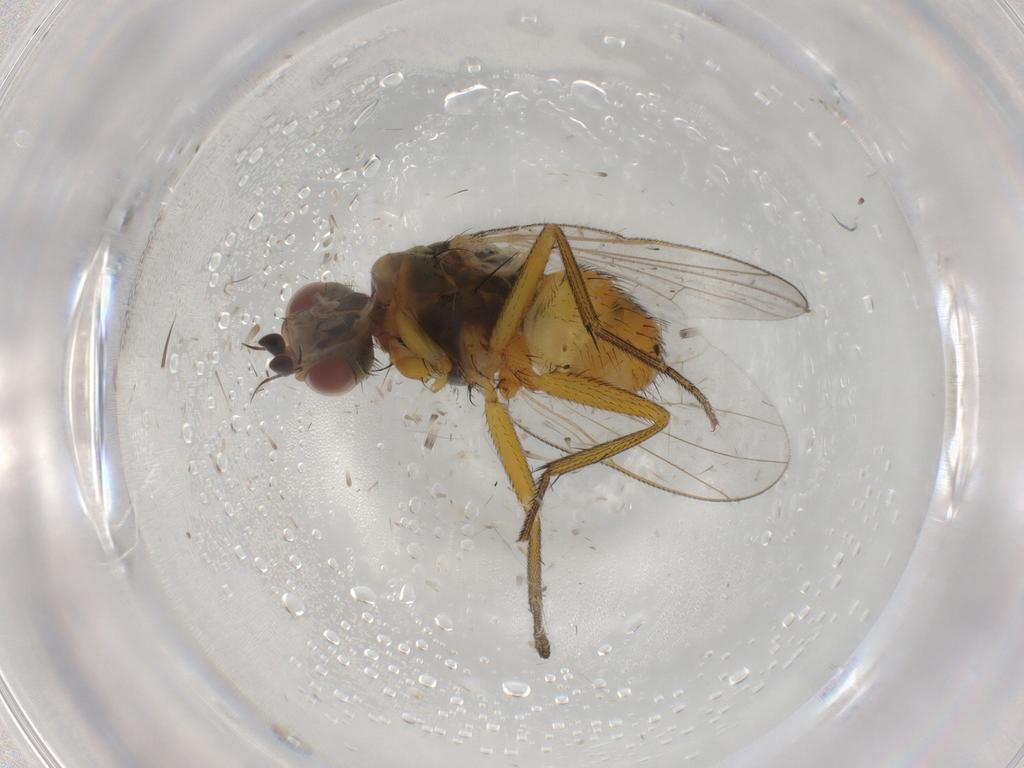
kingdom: Animalia
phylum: Arthropoda
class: Insecta
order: Diptera
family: Muscidae
